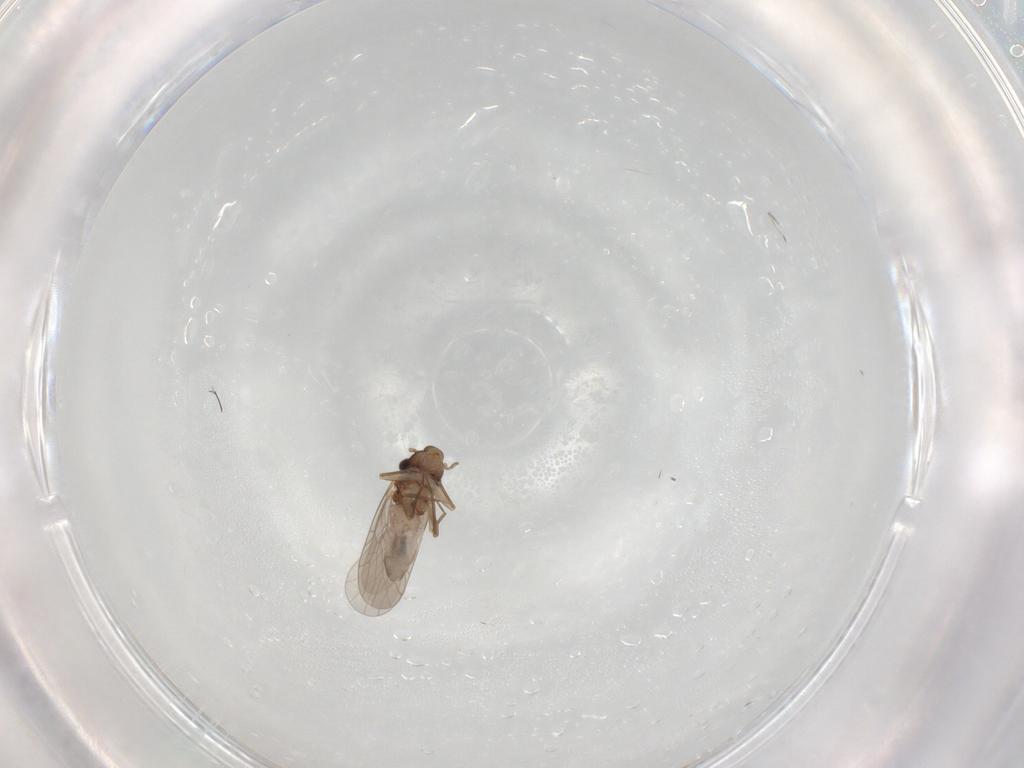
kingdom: Animalia
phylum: Arthropoda
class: Insecta
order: Psocodea
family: Lepidopsocidae
